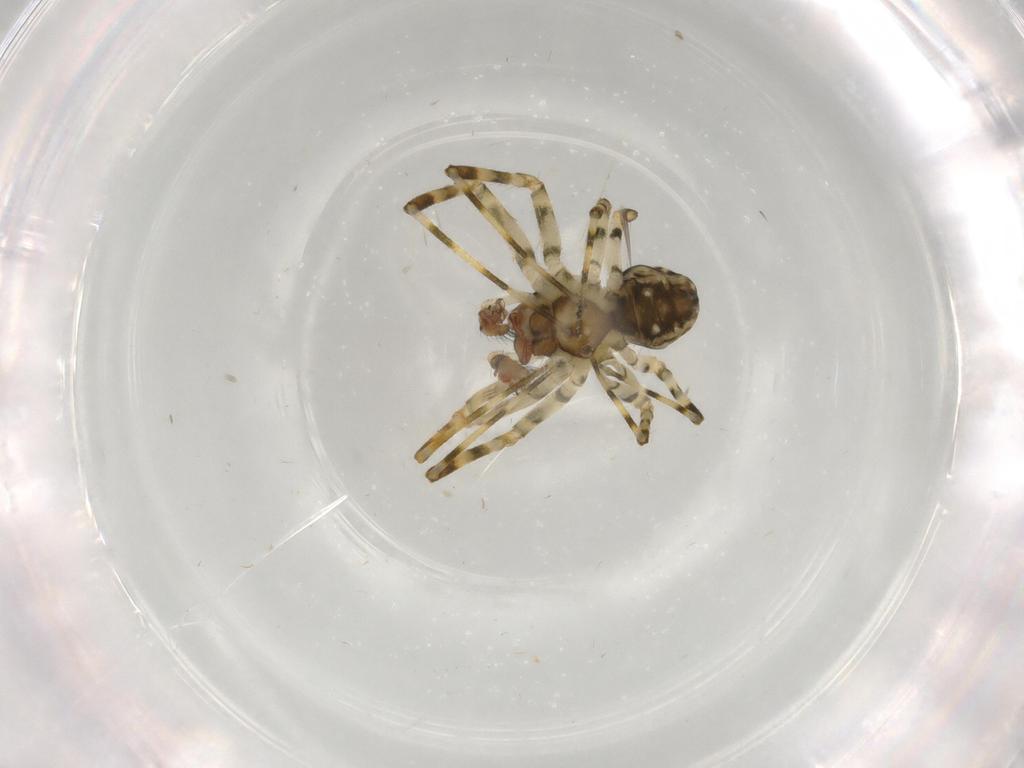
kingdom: Animalia
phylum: Arthropoda
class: Arachnida
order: Araneae
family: Mysmenidae
